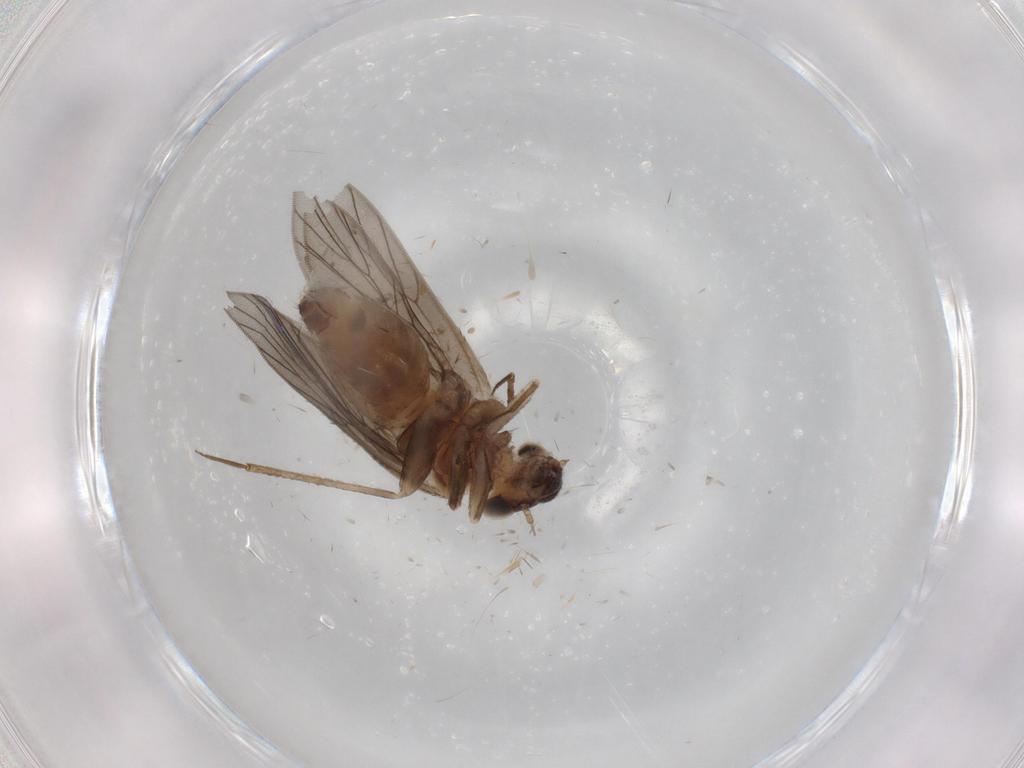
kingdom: Animalia
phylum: Arthropoda
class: Insecta
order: Psocodea
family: Lepidopsocidae
